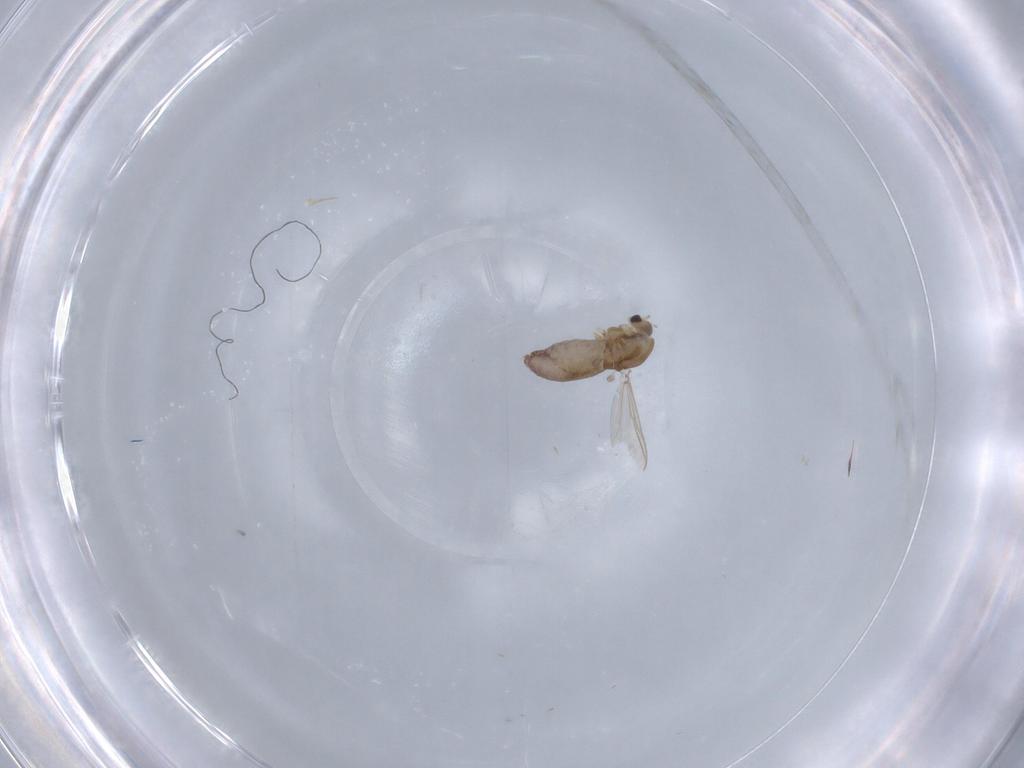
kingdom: Animalia
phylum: Arthropoda
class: Insecta
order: Diptera
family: Chironomidae
